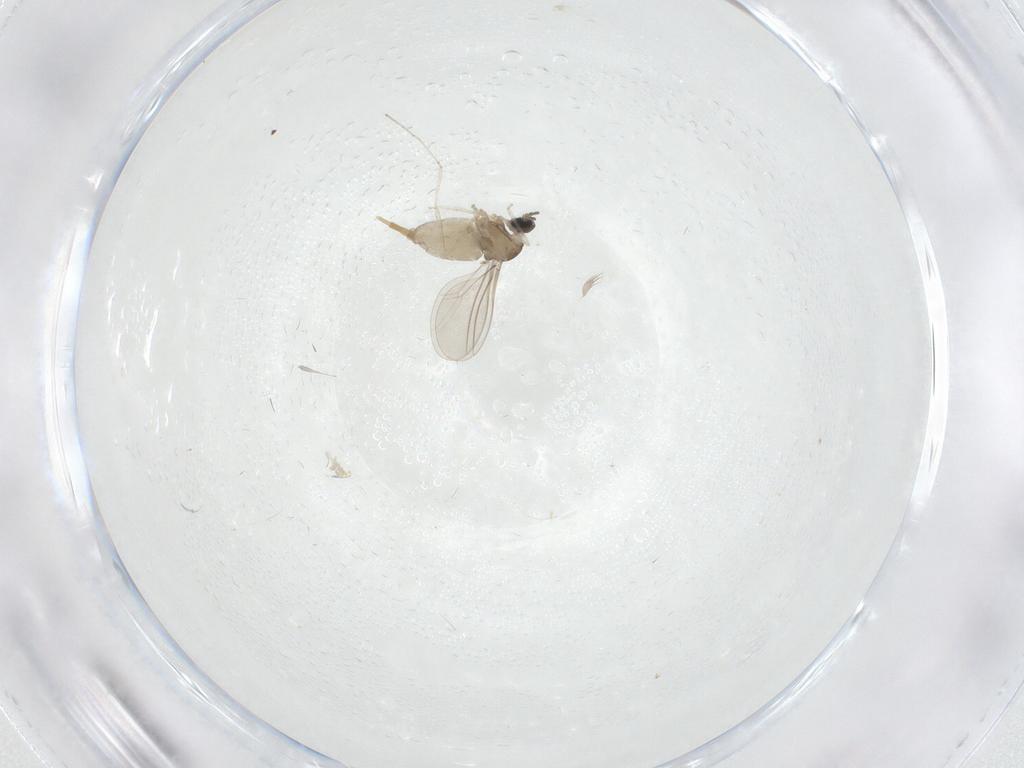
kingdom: Animalia
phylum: Arthropoda
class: Insecta
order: Diptera
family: Cecidomyiidae
